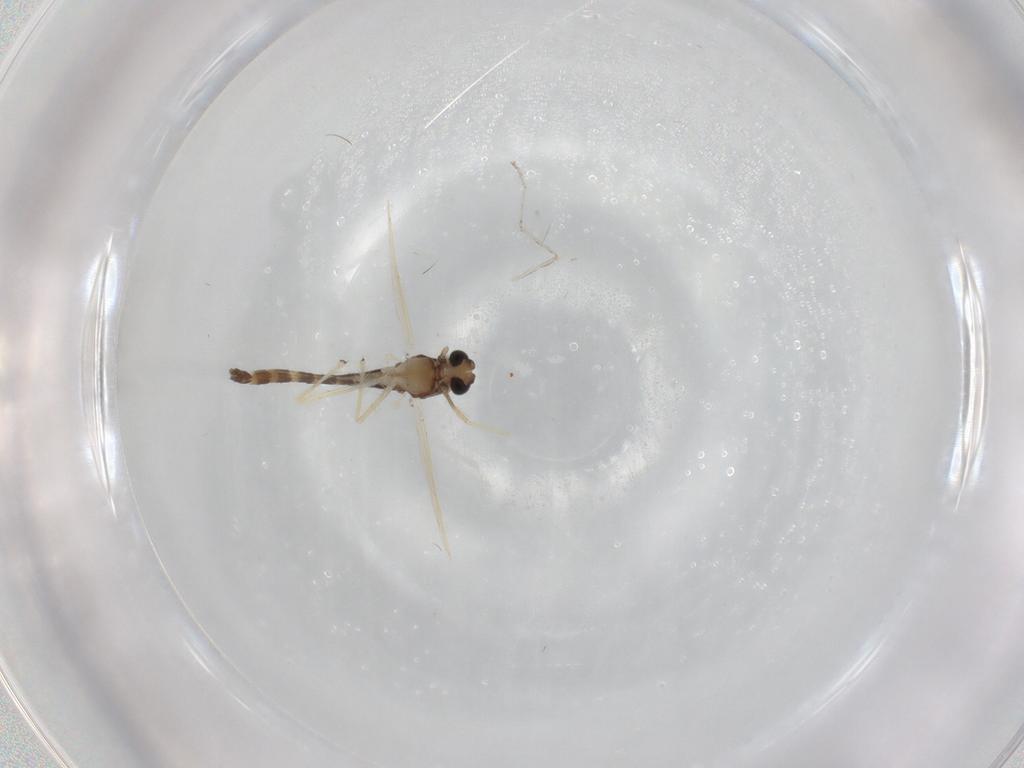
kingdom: Animalia
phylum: Arthropoda
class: Insecta
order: Diptera
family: Chironomidae
